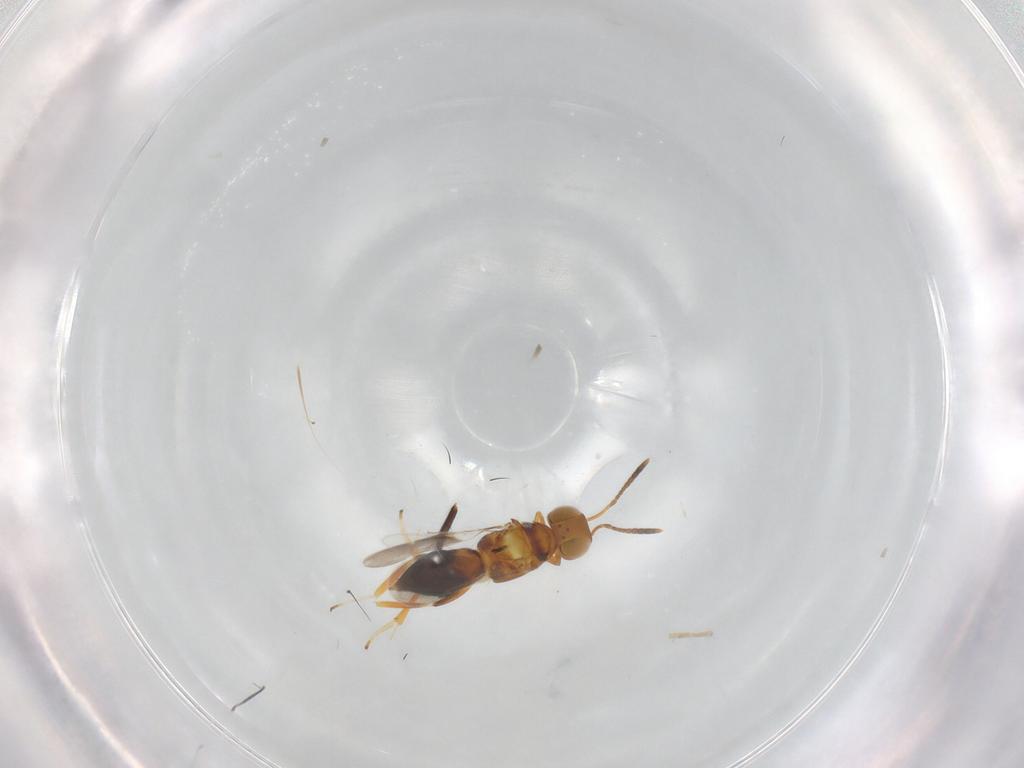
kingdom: Animalia
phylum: Arthropoda
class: Insecta
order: Hymenoptera
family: Encyrtidae
